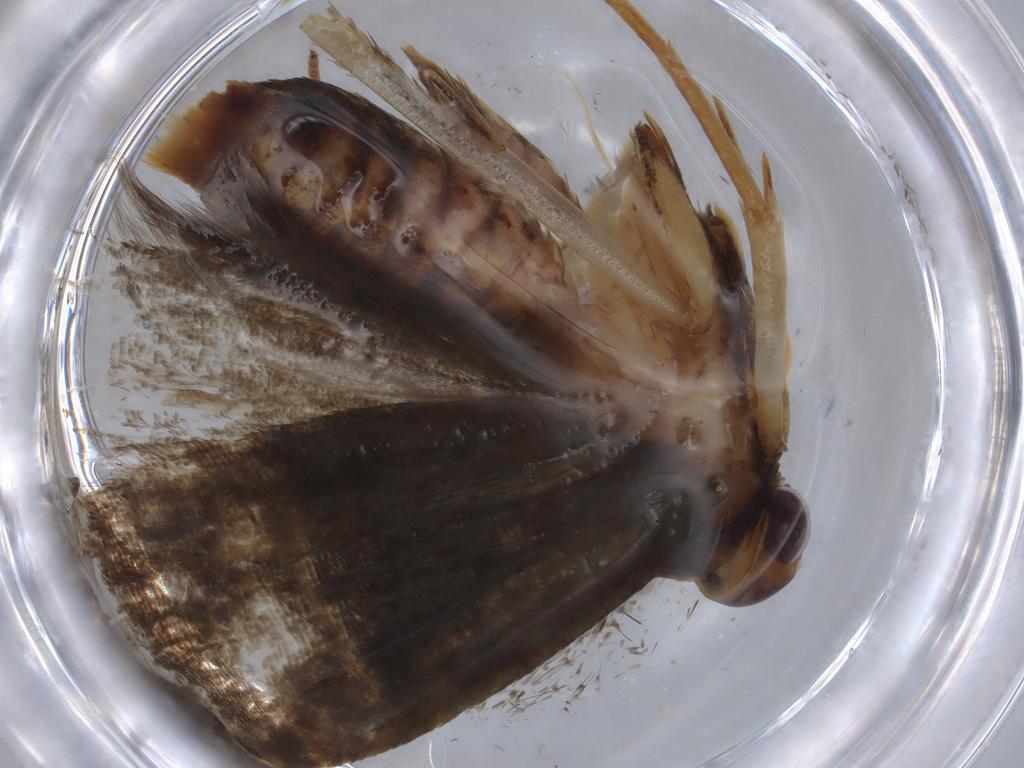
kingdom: Animalia
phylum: Arthropoda
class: Insecta
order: Lepidoptera
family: Lecithoceridae
